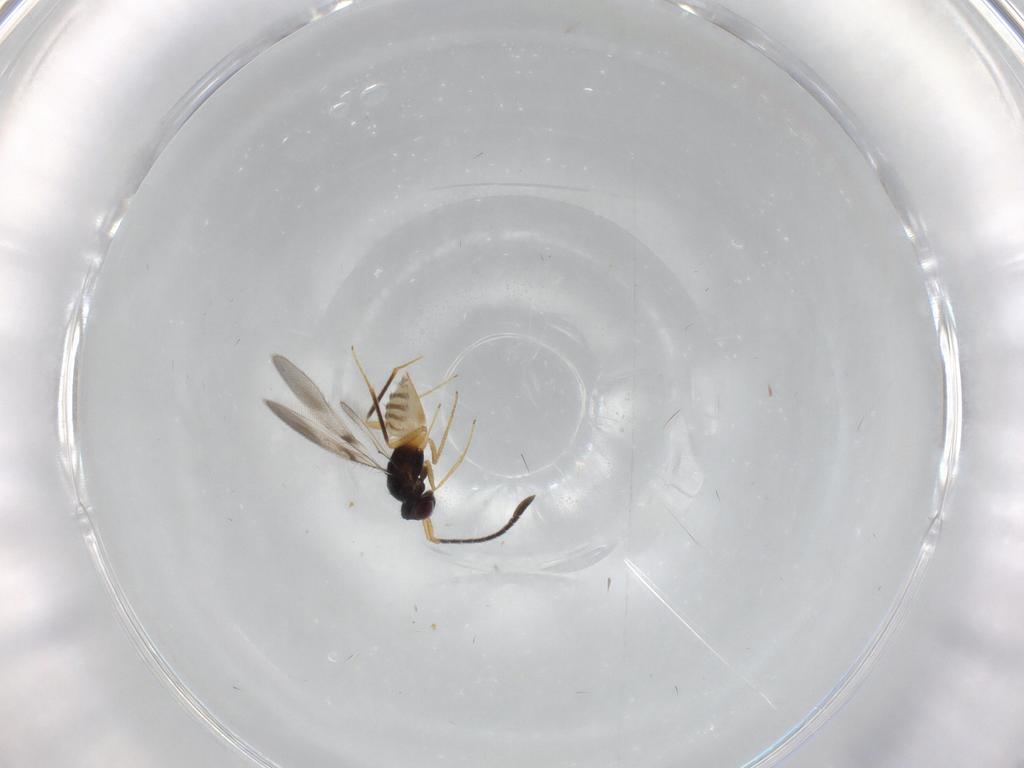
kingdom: Animalia
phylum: Arthropoda
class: Insecta
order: Hymenoptera
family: Mymaridae
